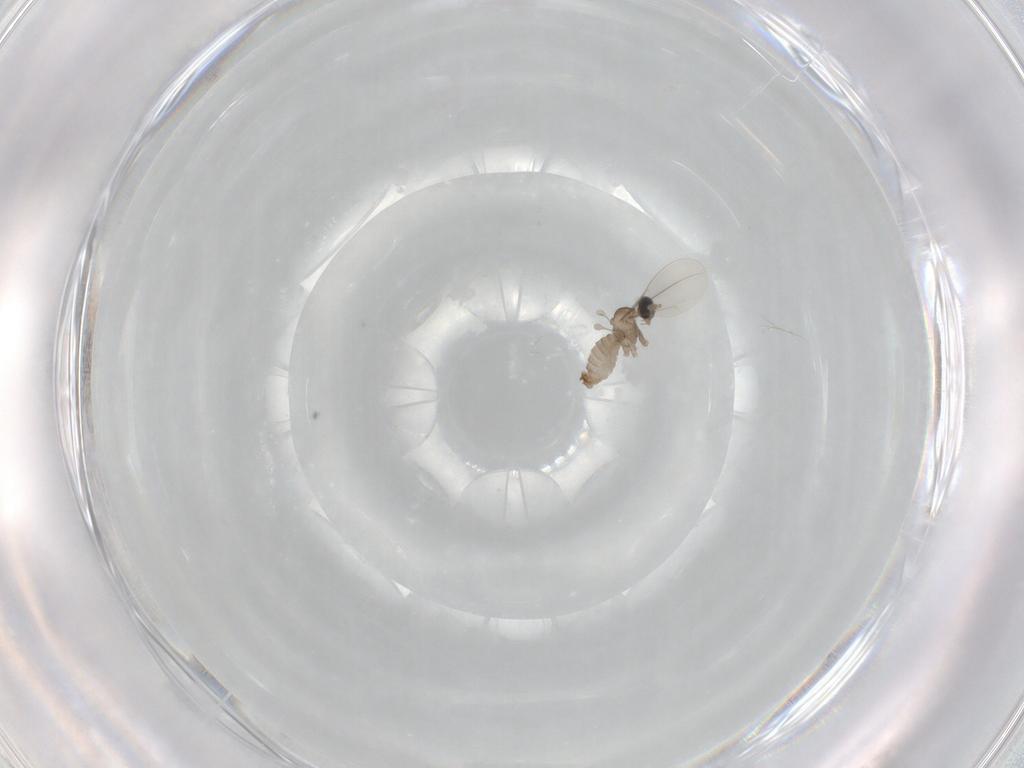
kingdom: Animalia
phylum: Arthropoda
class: Insecta
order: Diptera
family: Cecidomyiidae
